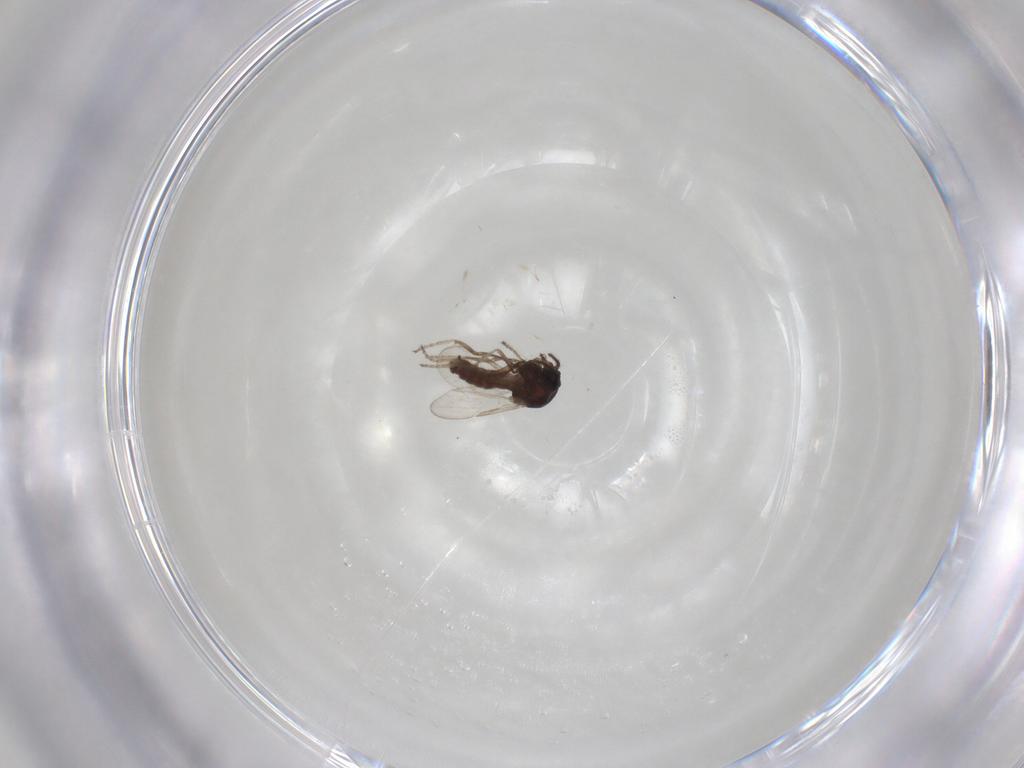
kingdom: Animalia
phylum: Arthropoda
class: Insecta
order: Diptera
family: Ceratopogonidae
